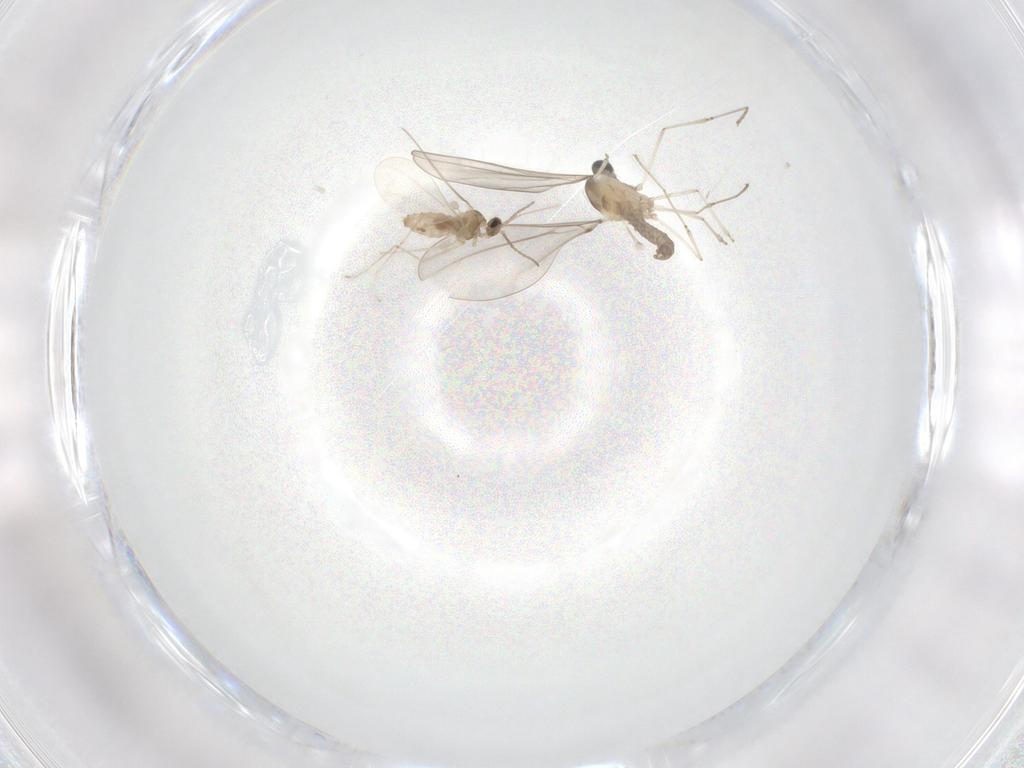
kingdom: Animalia
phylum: Arthropoda
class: Insecta
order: Diptera
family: Cecidomyiidae
